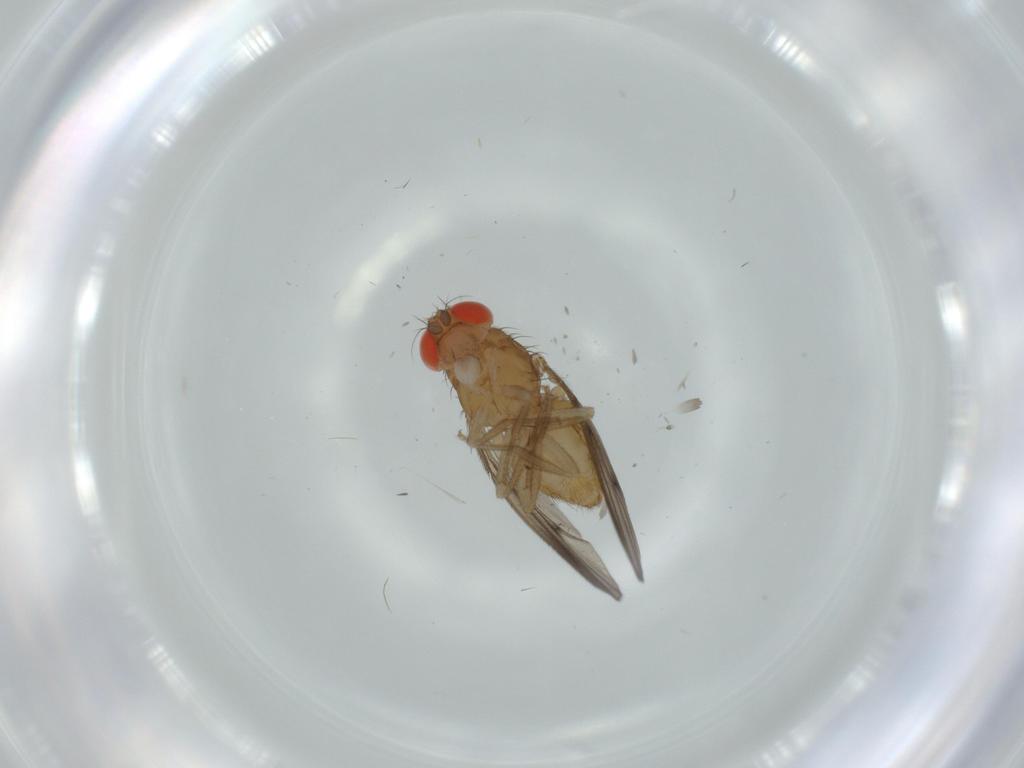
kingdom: Animalia
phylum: Arthropoda
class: Insecta
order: Diptera
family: Drosophilidae
